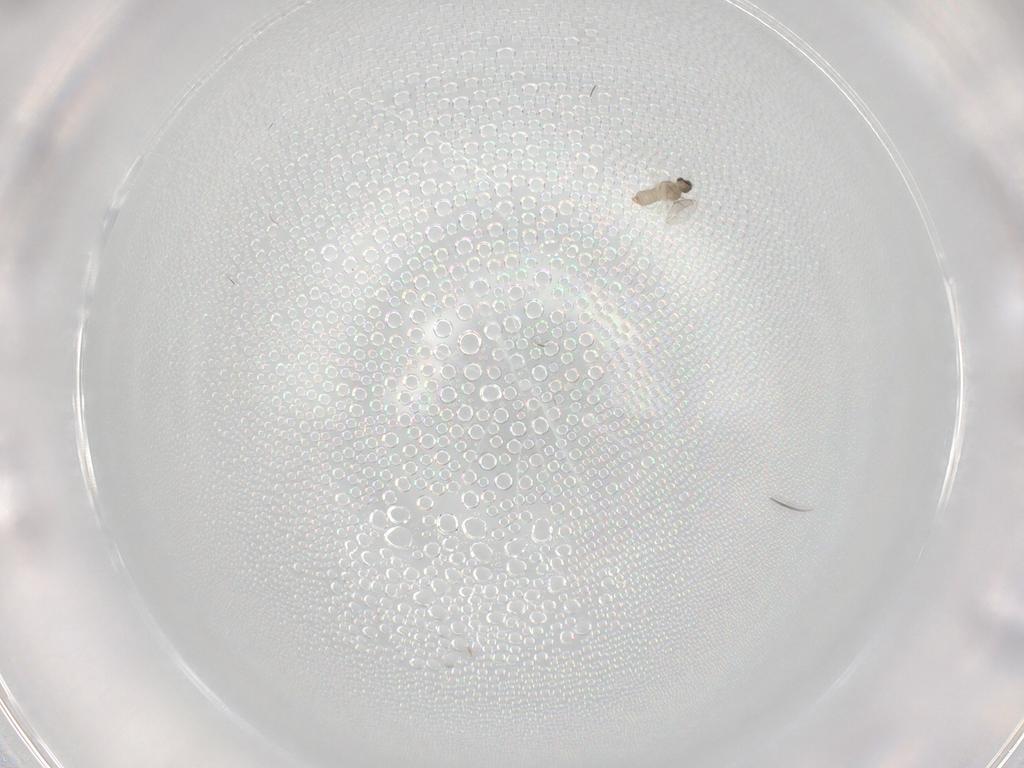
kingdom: Animalia
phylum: Arthropoda
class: Insecta
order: Diptera
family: Cecidomyiidae
